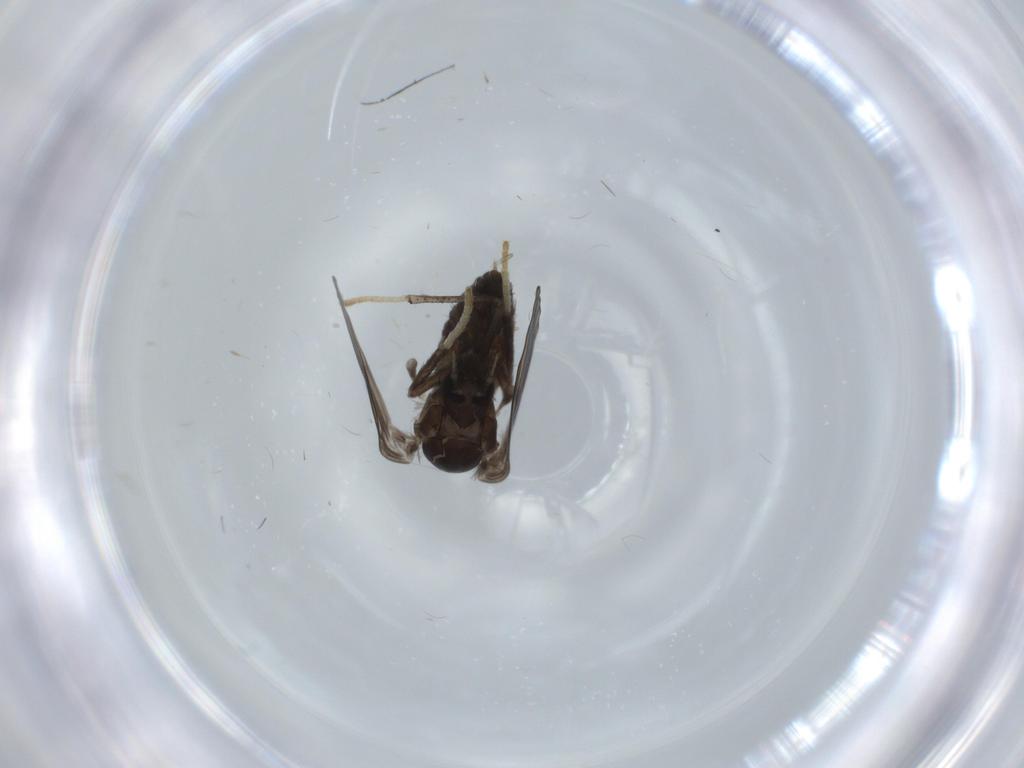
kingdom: Animalia
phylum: Arthropoda
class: Insecta
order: Diptera
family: Psychodidae
